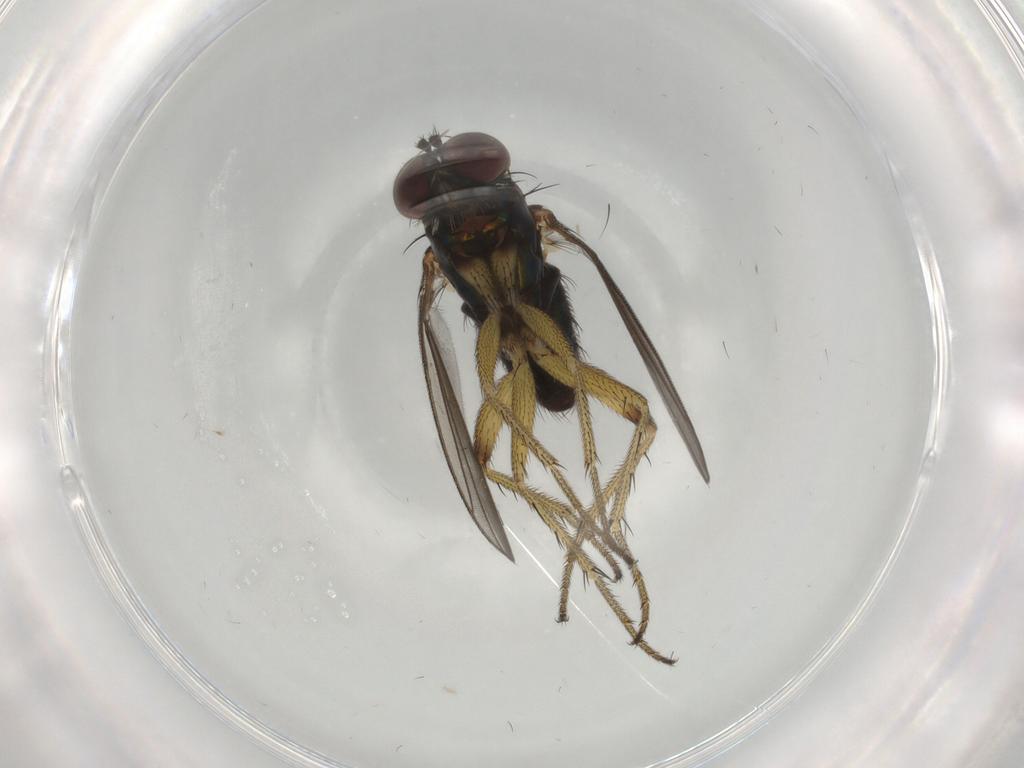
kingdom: Animalia
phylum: Arthropoda
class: Insecta
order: Diptera
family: Dolichopodidae
